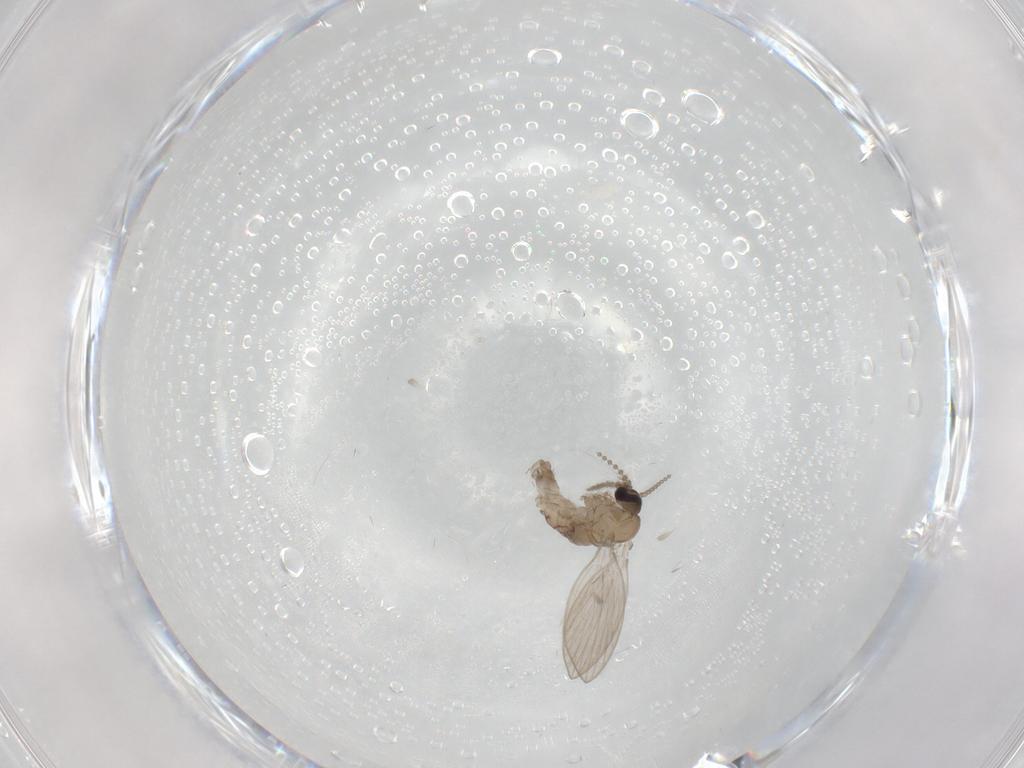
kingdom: Animalia
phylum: Arthropoda
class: Insecta
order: Diptera
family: Psychodidae
